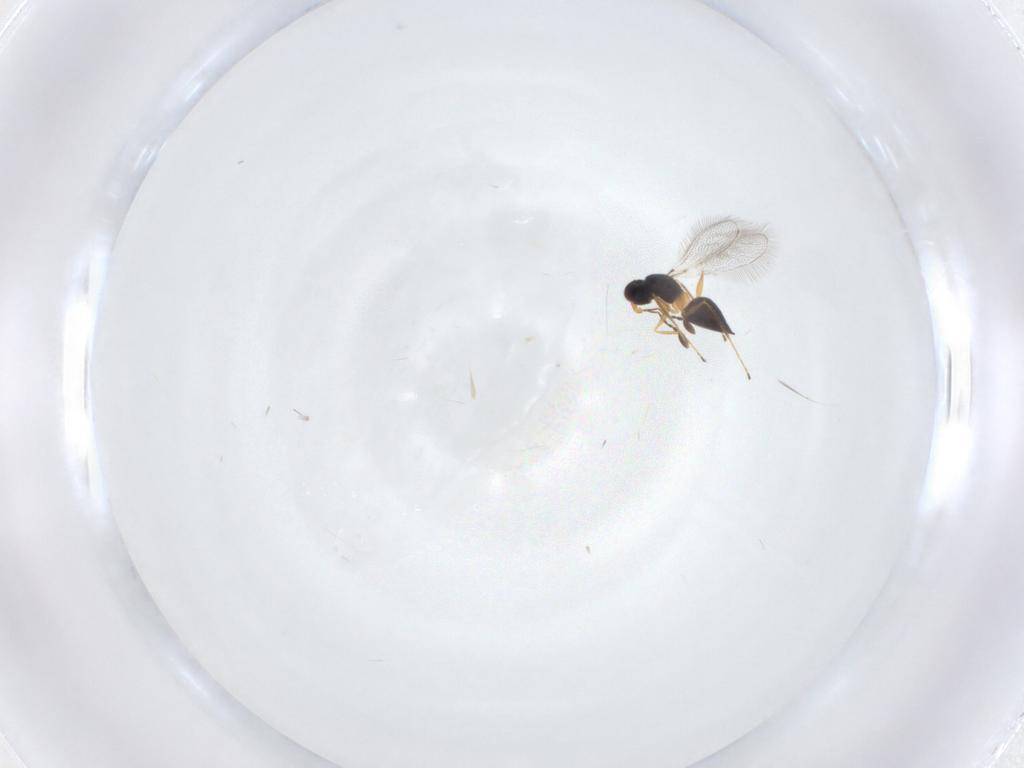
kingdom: Animalia
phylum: Arthropoda
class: Insecta
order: Hymenoptera
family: Mymaridae
